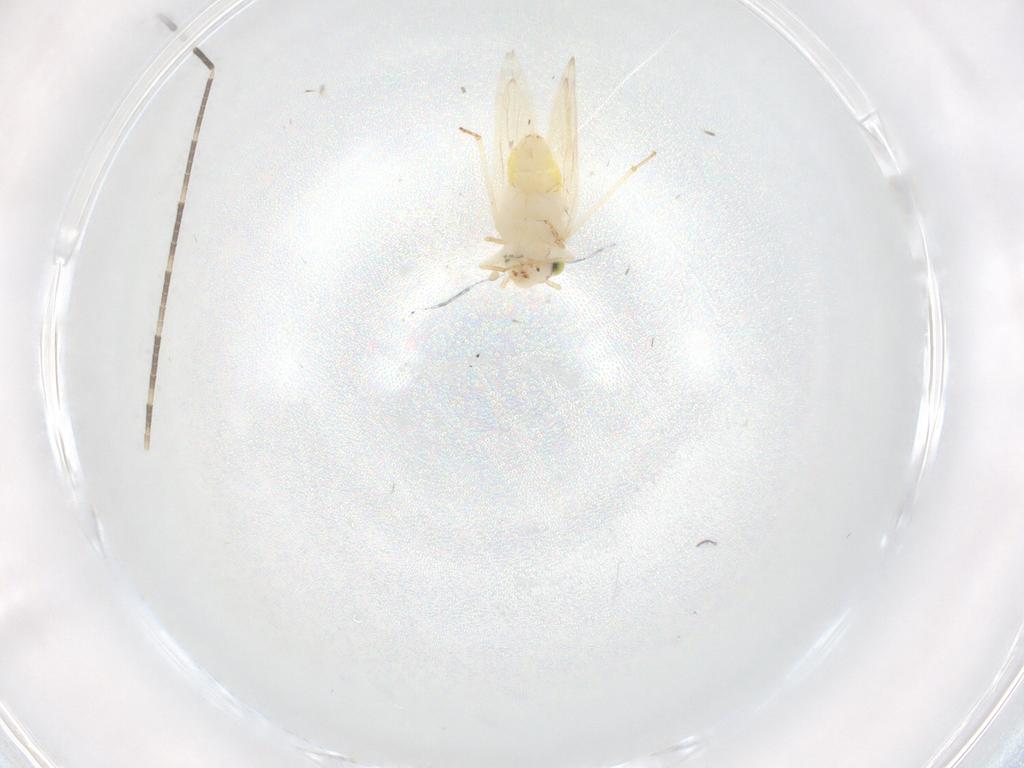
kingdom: Animalia
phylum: Arthropoda
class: Insecta
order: Psocodea
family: Lepidopsocidae
